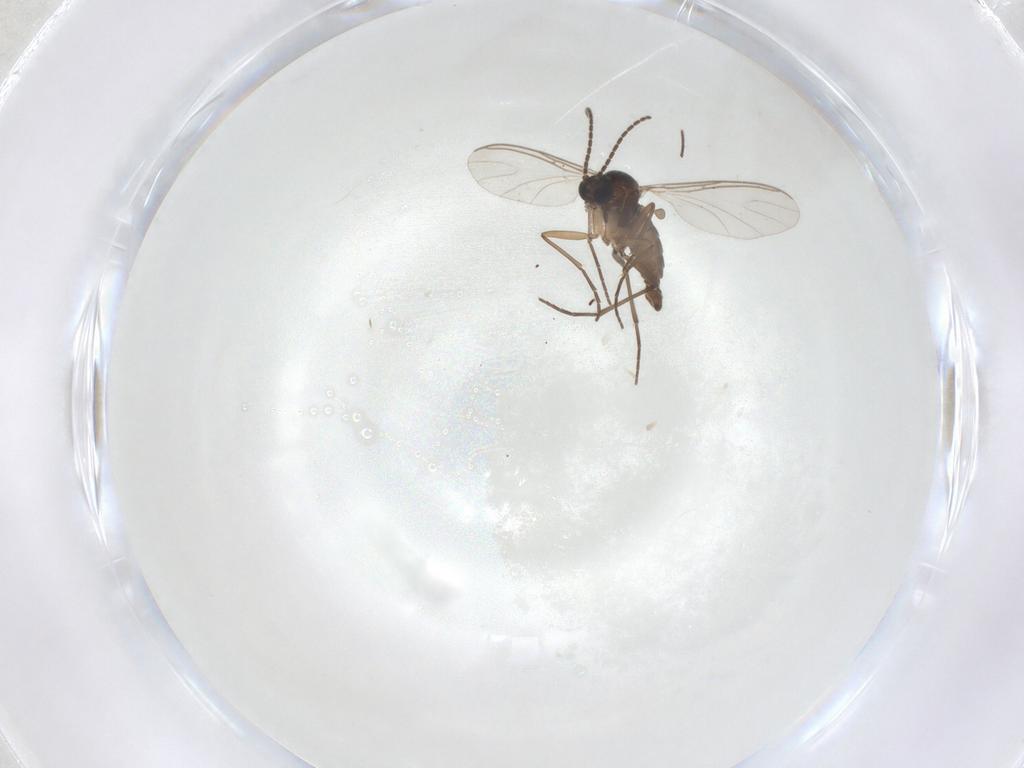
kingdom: Animalia
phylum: Arthropoda
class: Insecta
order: Diptera
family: Sciaridae
